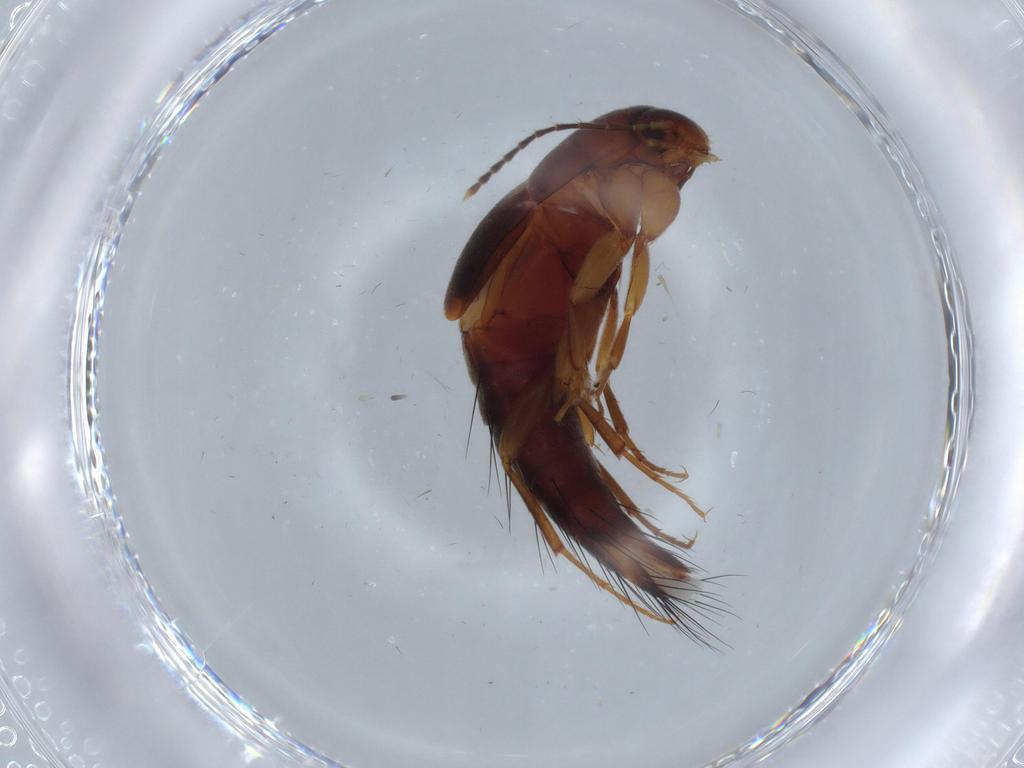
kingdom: Animalia
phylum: Arthropoda
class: Insecta
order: Coleoptera
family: Staphylinidae
